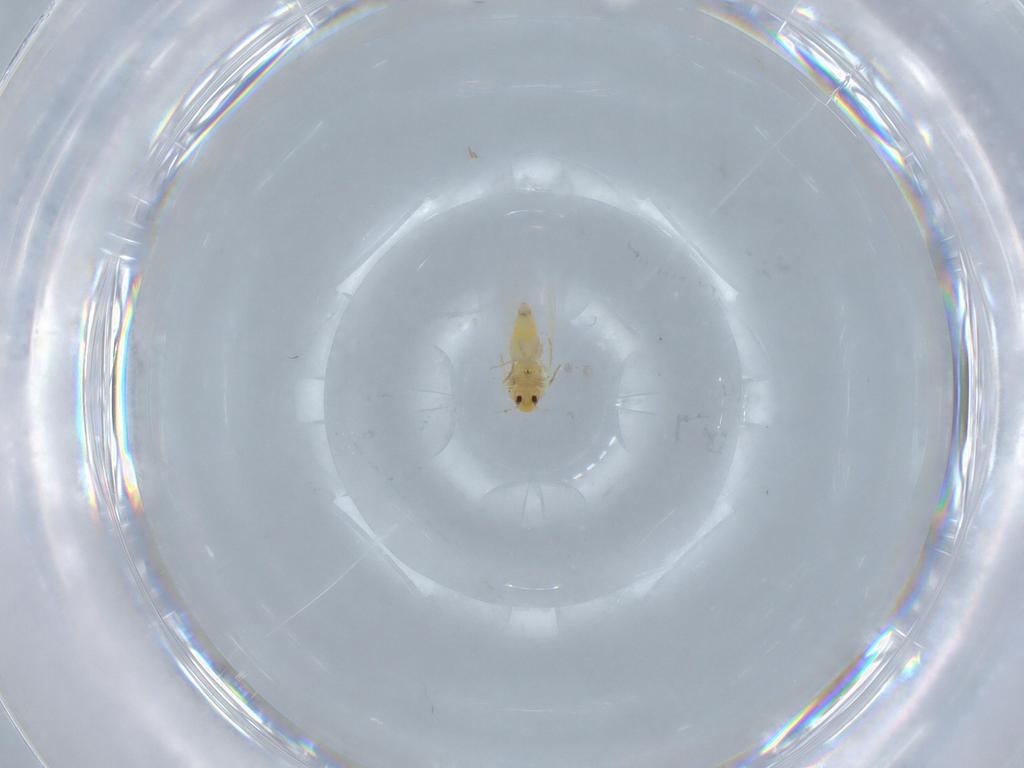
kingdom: Animalia
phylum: Arthropoda
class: Insecta
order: Hemiptera
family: Aleyrodidae
